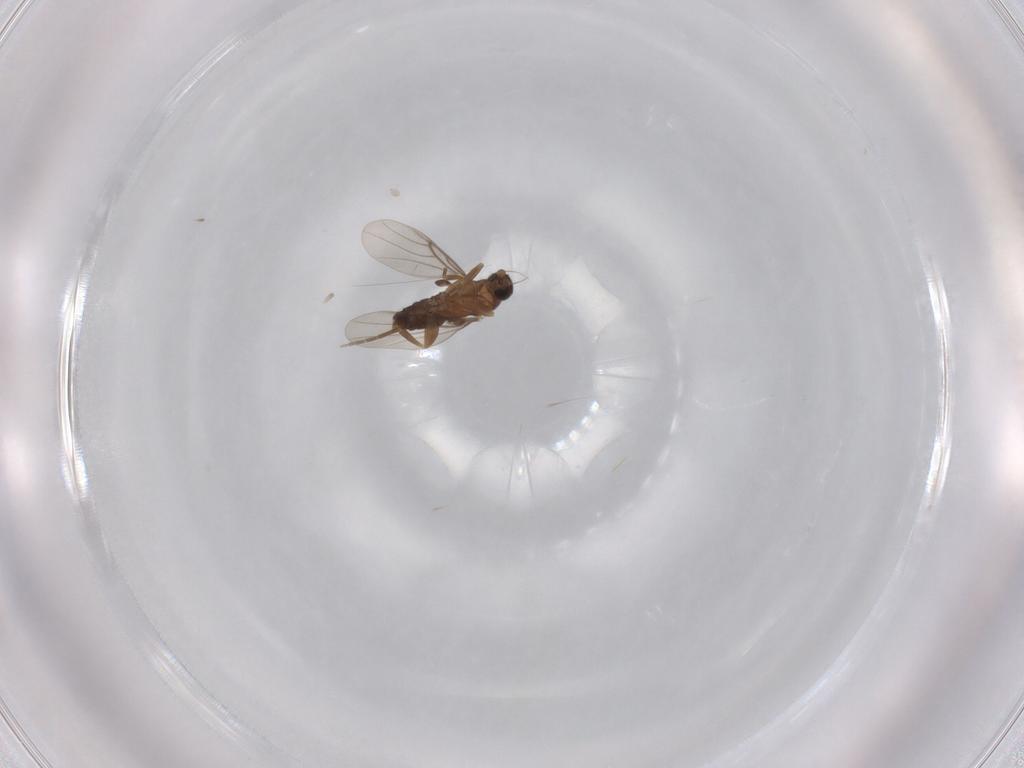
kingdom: Animalia
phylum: Arthropoda
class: Insecta
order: Diptera
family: Phoridae
